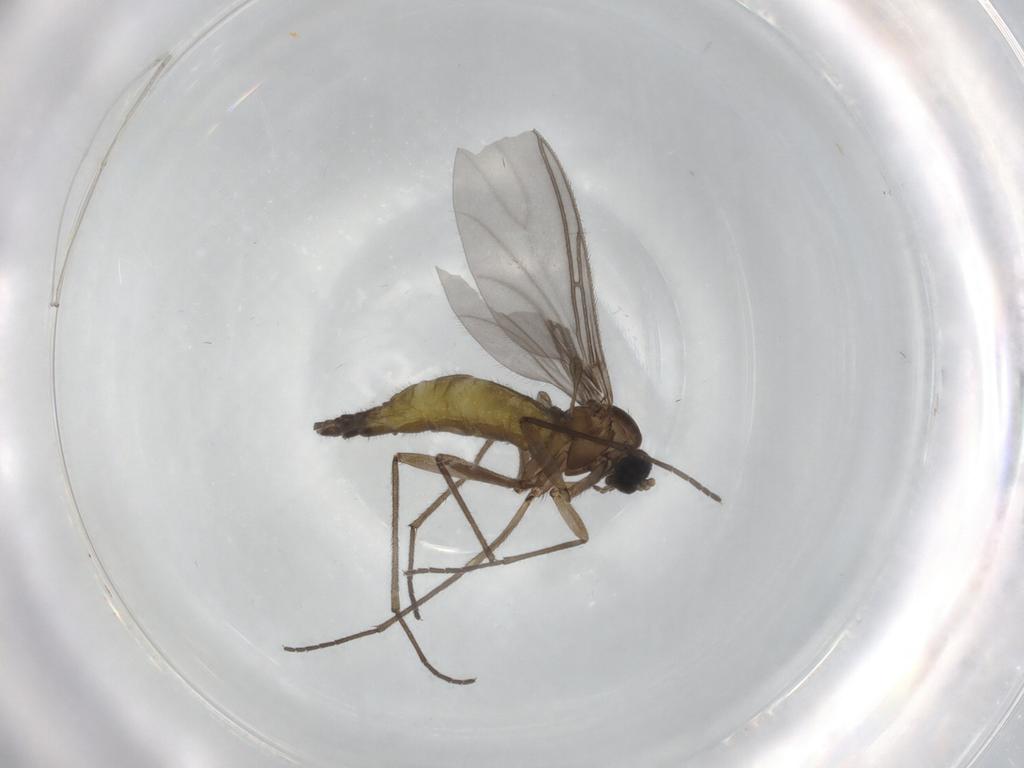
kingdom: Animalia
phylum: Arthropoda
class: Insecta
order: Diptera
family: Sciaridae
